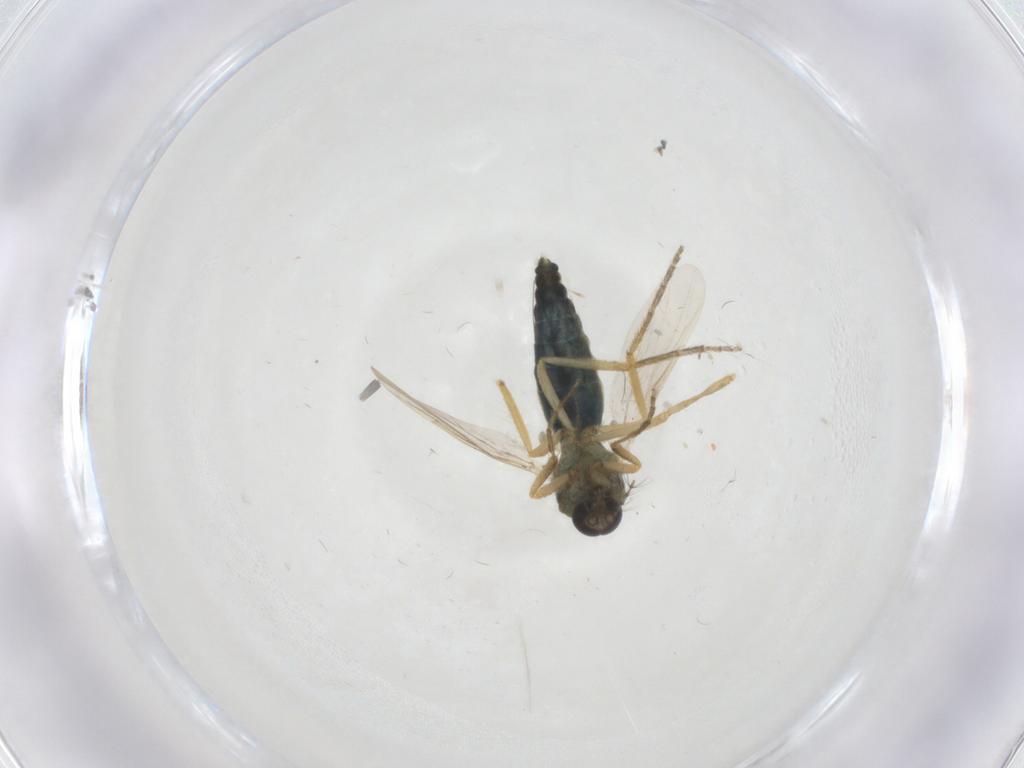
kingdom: Animalia
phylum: Arthropoda
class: Insecta
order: Diptera
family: Ceratopogonidae
